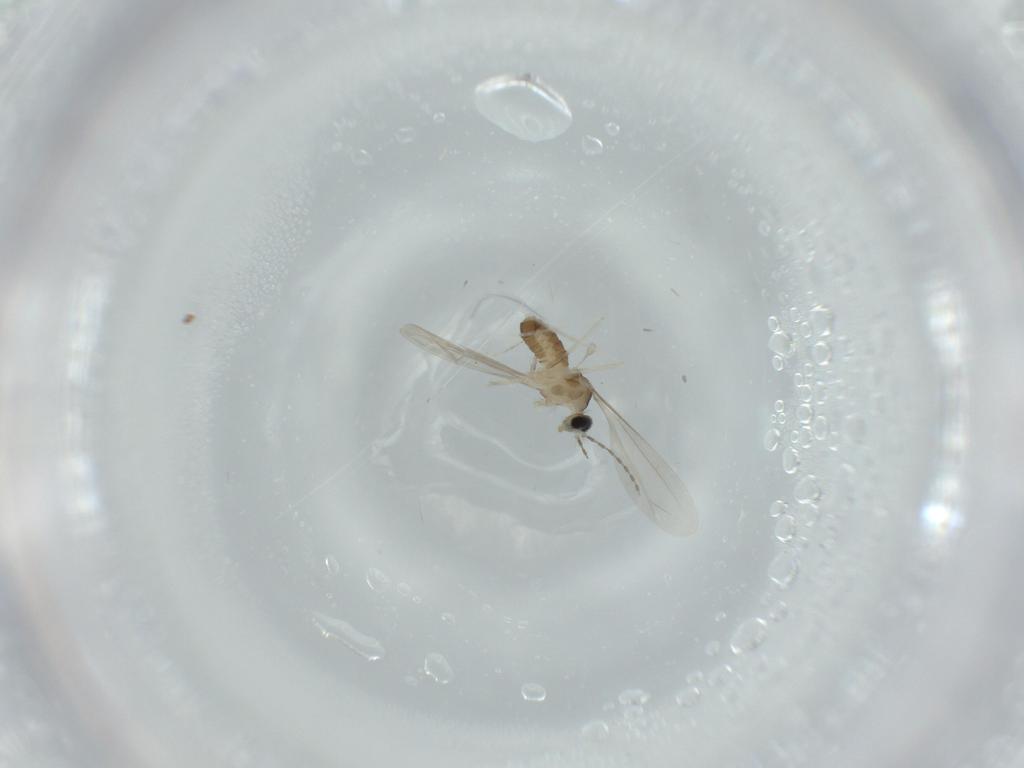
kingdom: Animalia
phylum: Arthropoda
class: Insecta
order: Diptera
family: Cecidomyiidae
